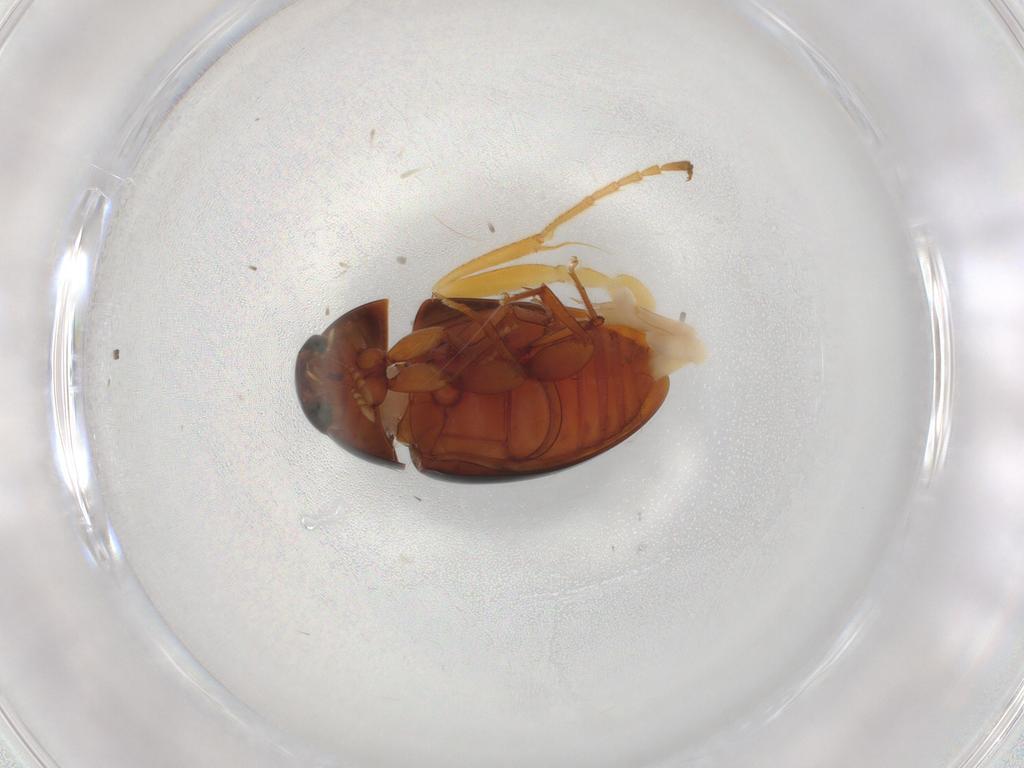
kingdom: Animalia
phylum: Arthropoda
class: Insecta
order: Coleoptera
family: Phalacridae
